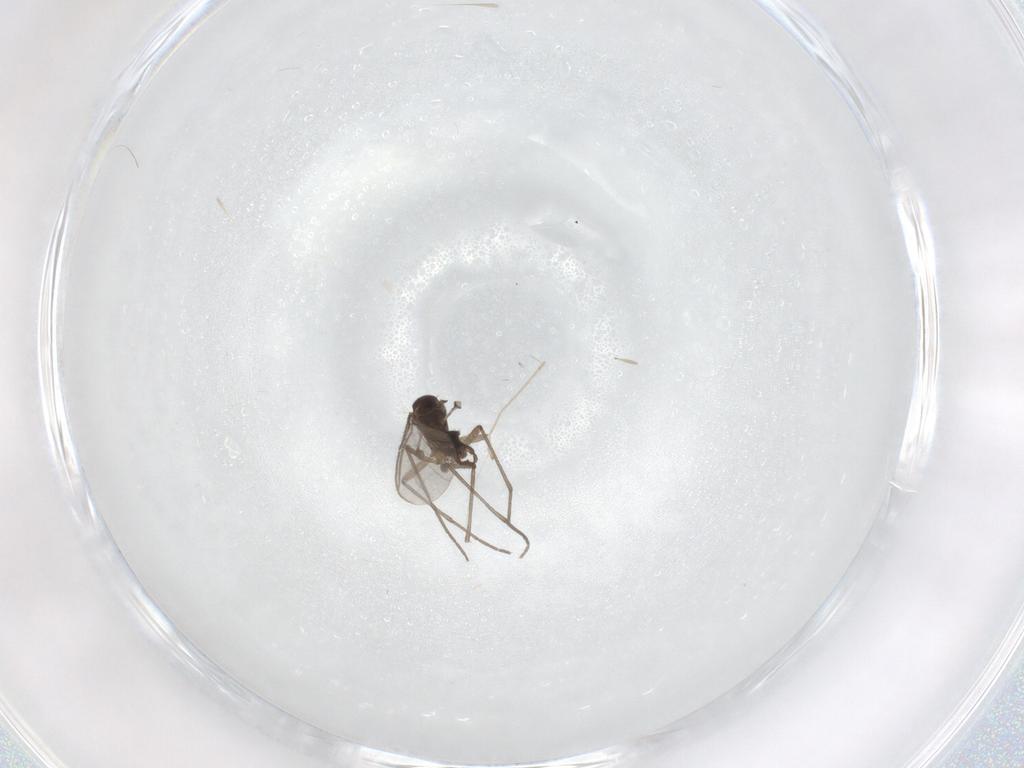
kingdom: Animalia
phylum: Arthropoda
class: Insecta
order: Diptera
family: Sciaridae
